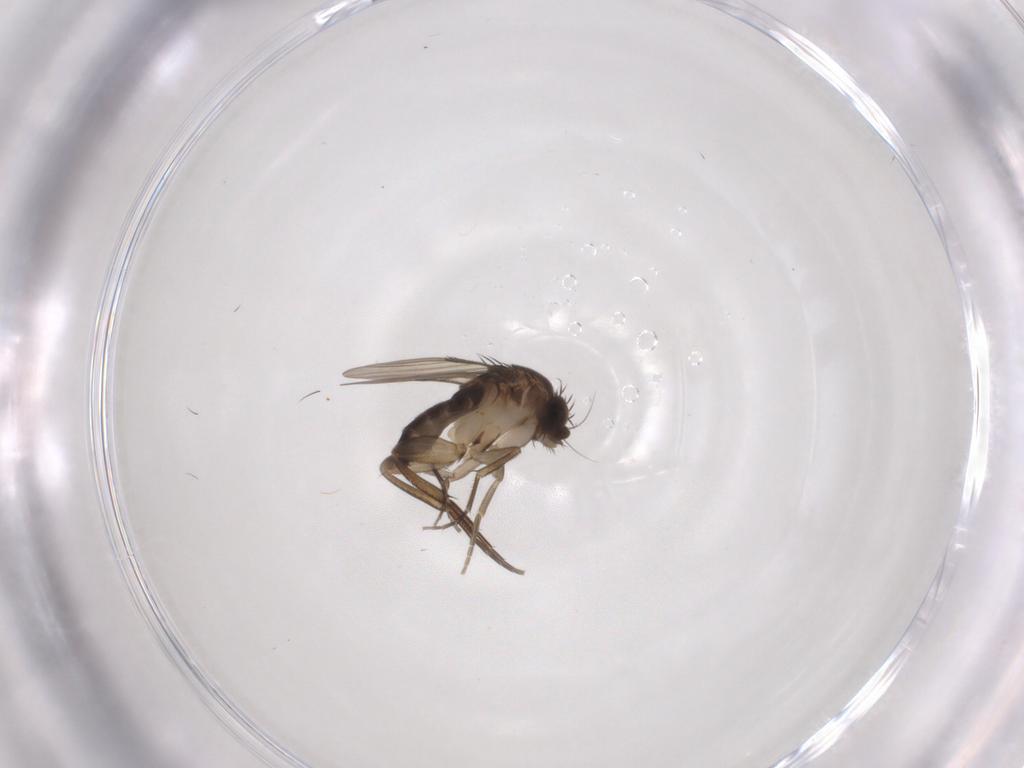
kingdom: Animalia
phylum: Arthropoda
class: Insecta
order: Diptera
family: Phoridae
